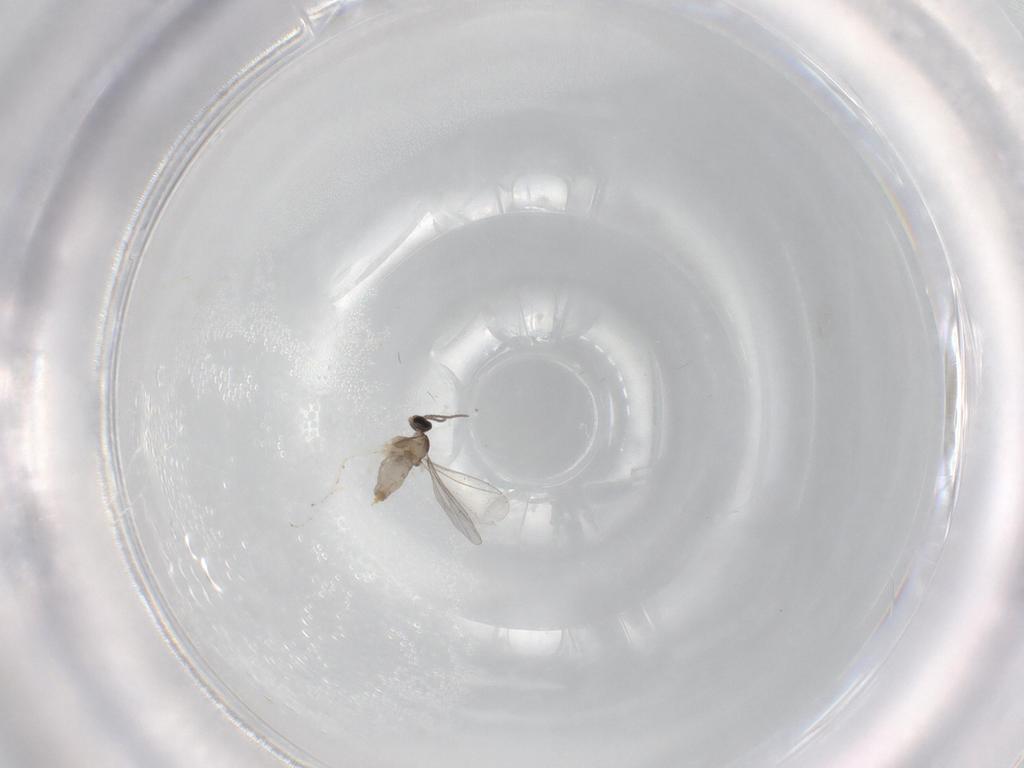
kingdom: Animalia
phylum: Arthropoda
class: Insecta
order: Diptera
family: Cecidomyiidae
